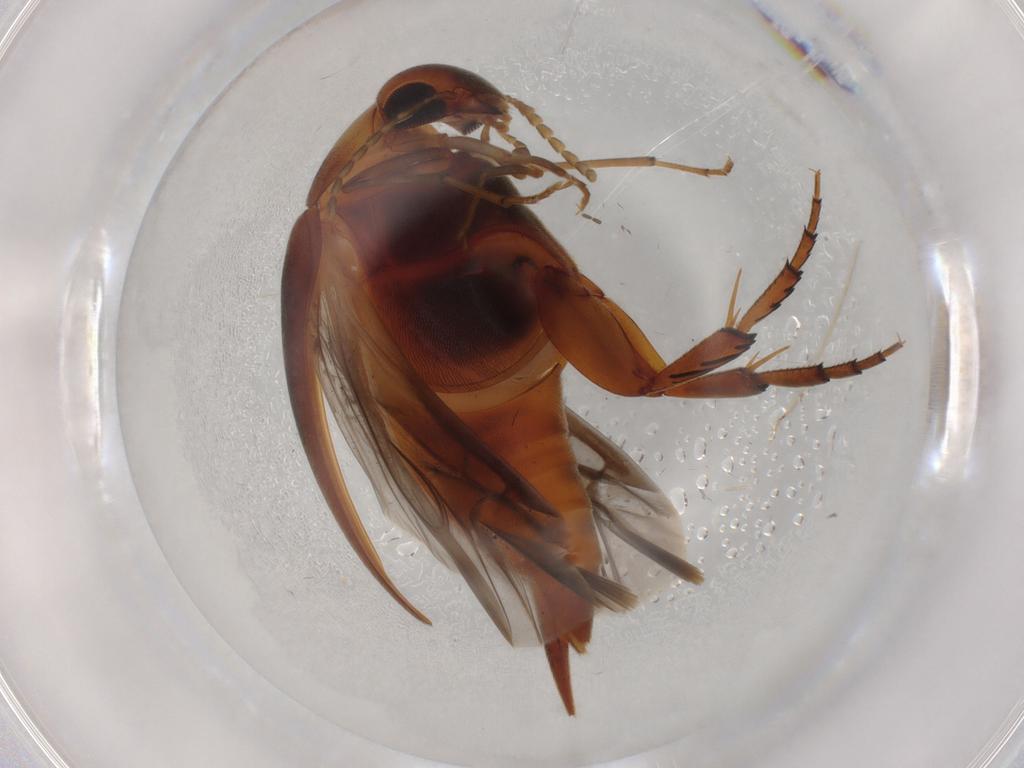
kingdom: Animalia
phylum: Arthropoda
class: Insecta
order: Coleoptera
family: Mordellidae
